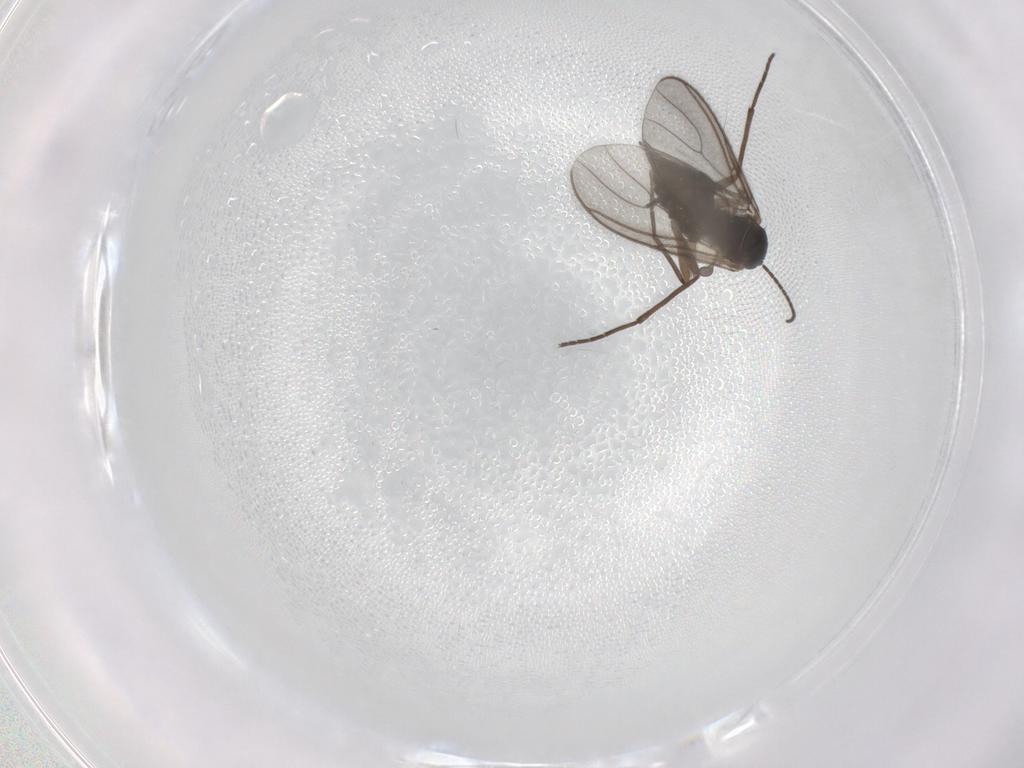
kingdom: Animalia
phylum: Arthropoda
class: Insecta
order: Diptera
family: Sciaridae
